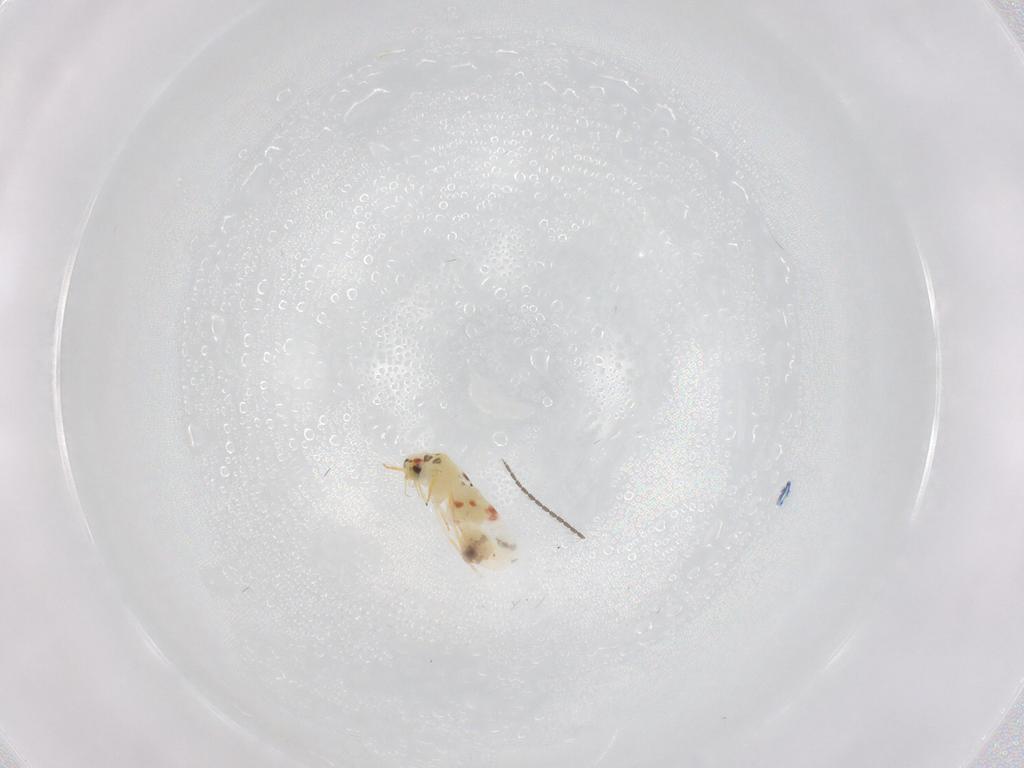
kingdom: Animalia
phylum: Arthropoda
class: Insecta
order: Hemiptera
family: Aleyrodidae
